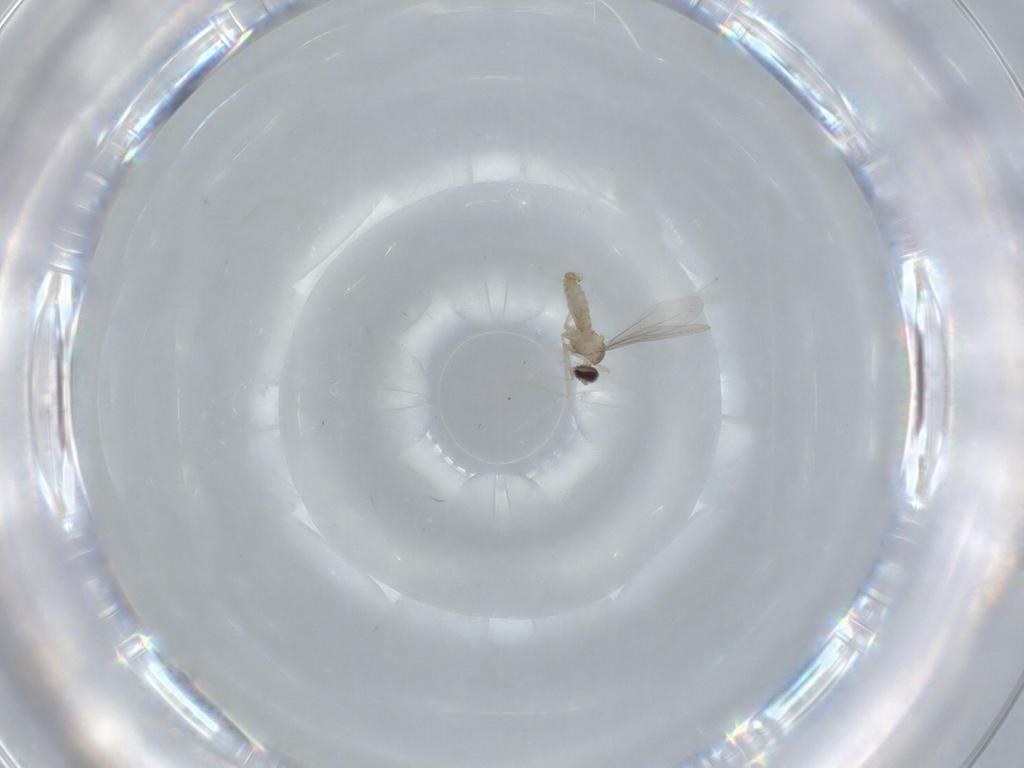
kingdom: Animalia
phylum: Arthropoda
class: Insecta
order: Diptera
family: Cecidomyiidae
